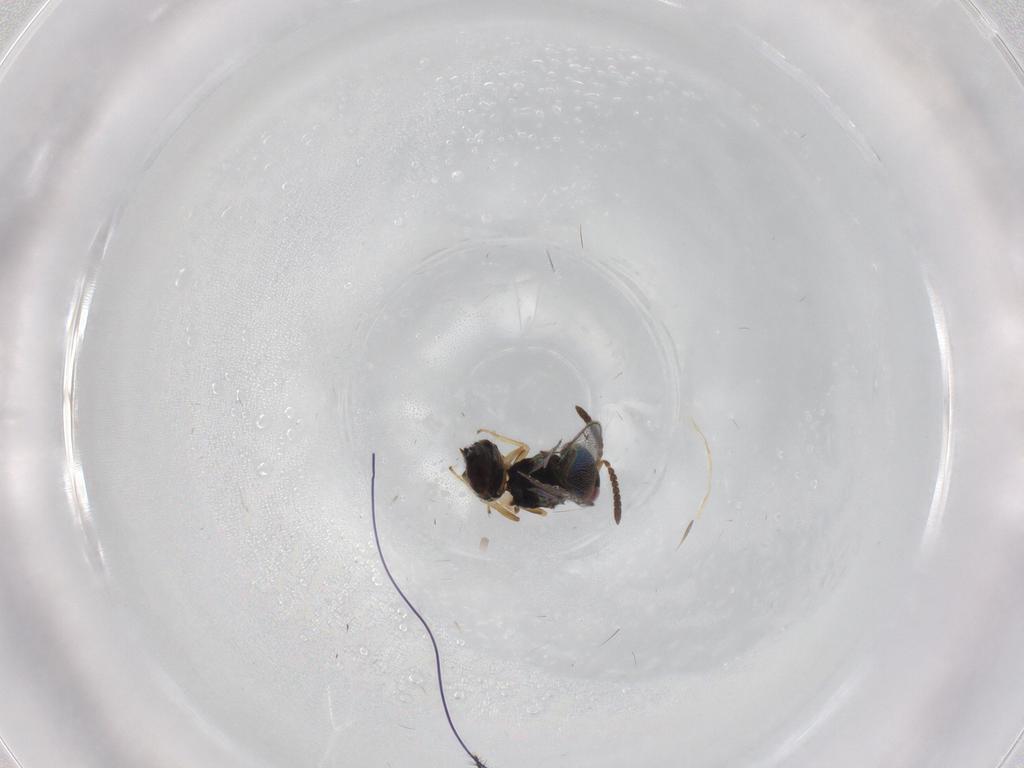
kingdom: Animalia
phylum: Arthropoda
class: Insecta
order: Hymenoptera
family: Pteromalidae
